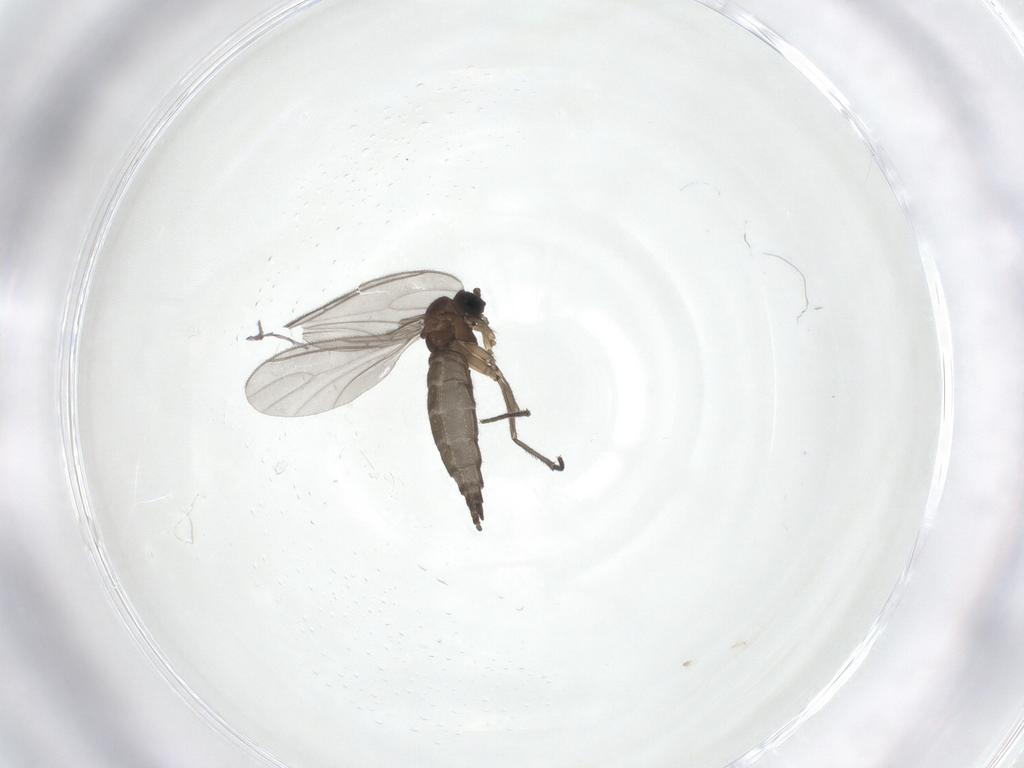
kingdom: Animalia
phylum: Arthropoda
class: Insecta
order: Diptera
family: Sciaridae
